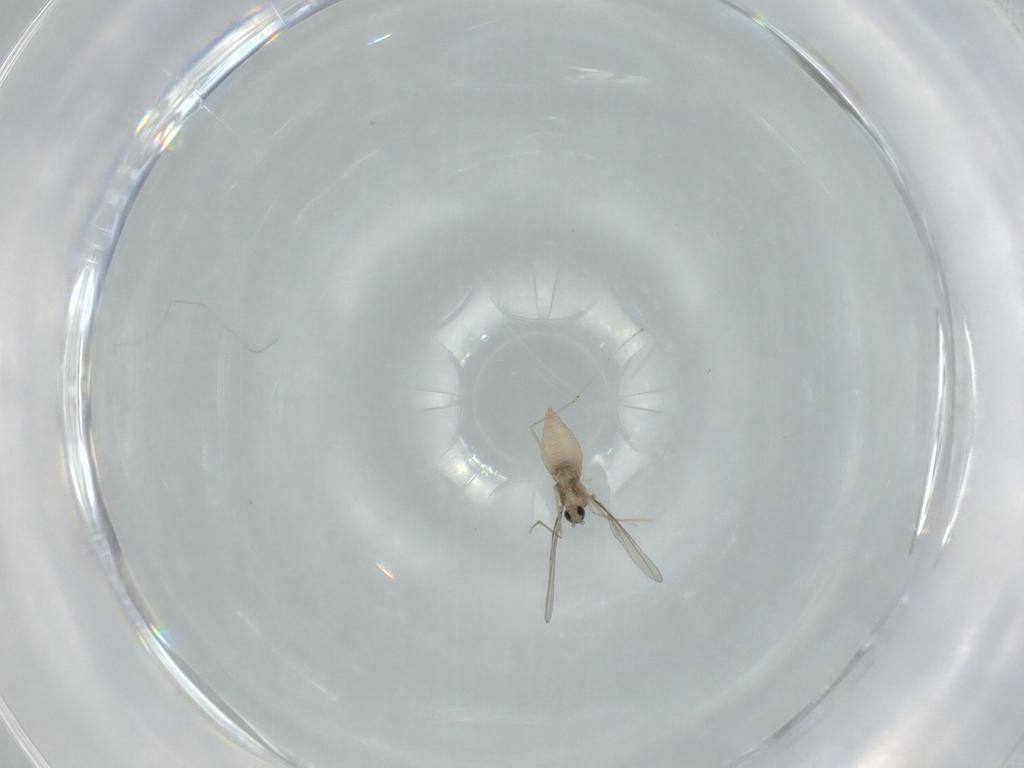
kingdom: Animalia
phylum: Arthropoda
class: Insecta
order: Diptera
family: Cecidomyiidae
